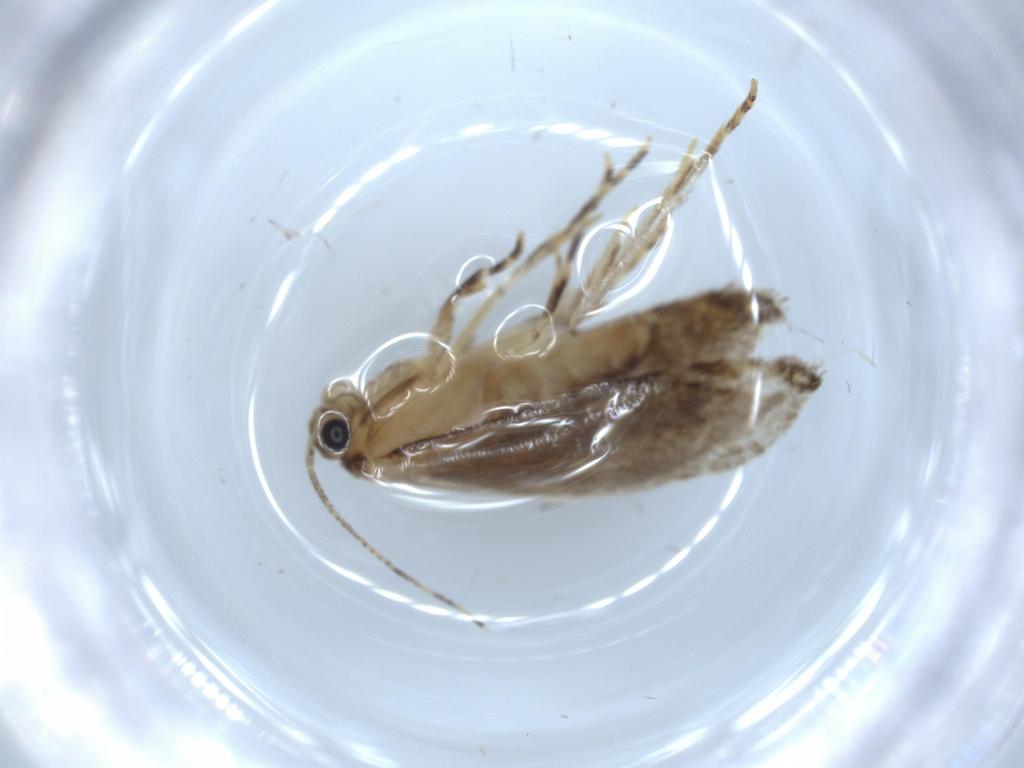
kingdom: Animalia
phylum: Arthropoda
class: Insecta
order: Lepidoptera
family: Tineidae
